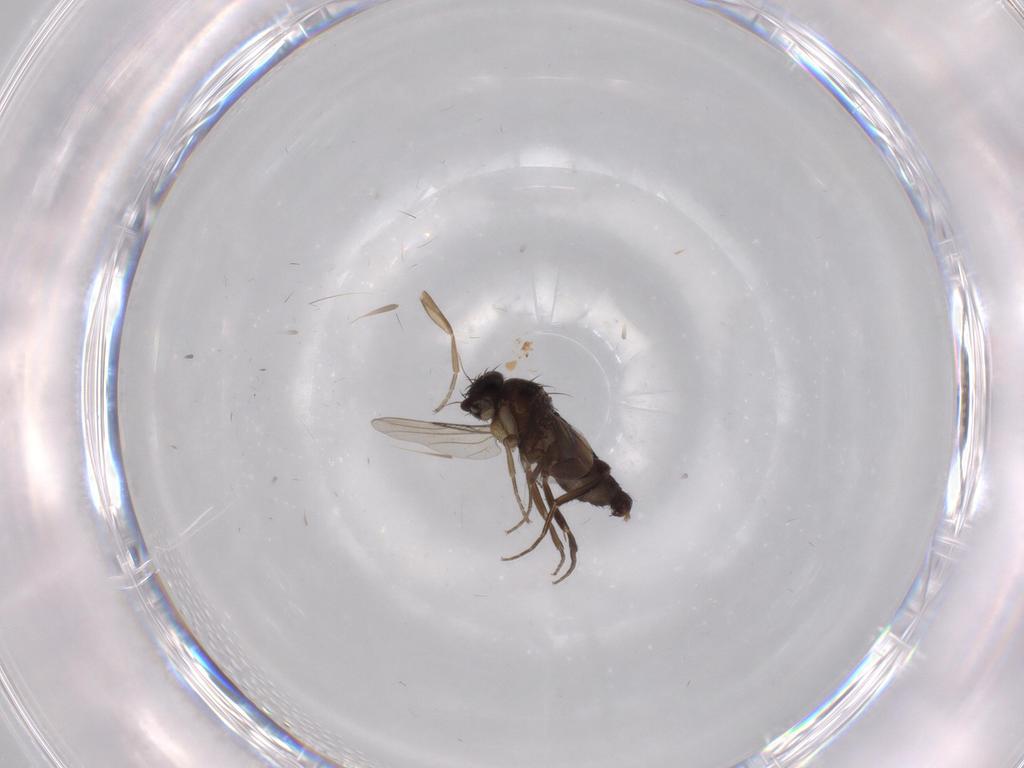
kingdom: Animalia
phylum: Arthropoda
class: Insecta
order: Diptera
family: Phoridae
